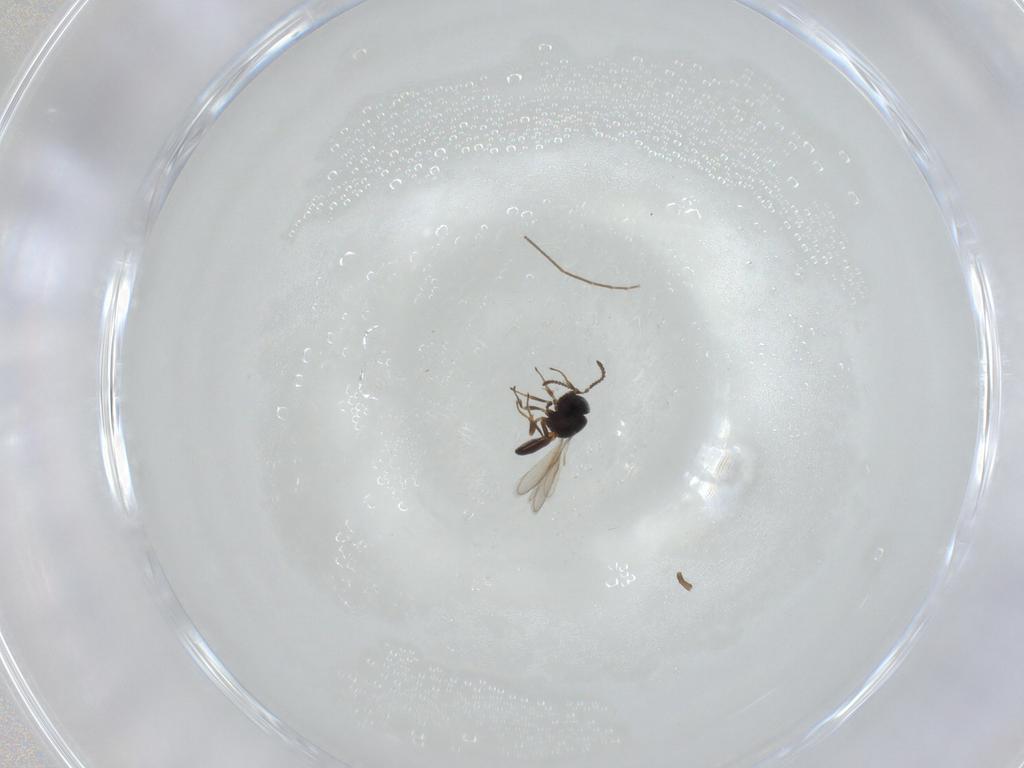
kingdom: Animalia
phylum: Arthropoda
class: Insecta
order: Hymenoptera
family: Scelionidae
